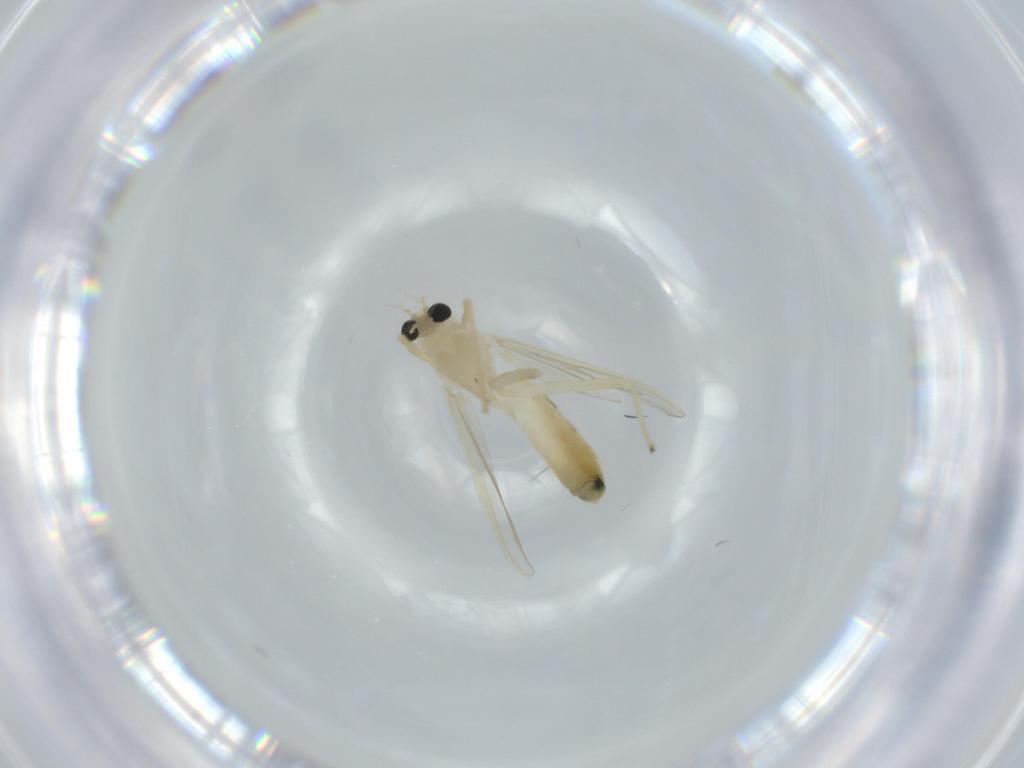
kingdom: Animalia
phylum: Arthropoda
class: Insecta
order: Diptera
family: Chironomidae
